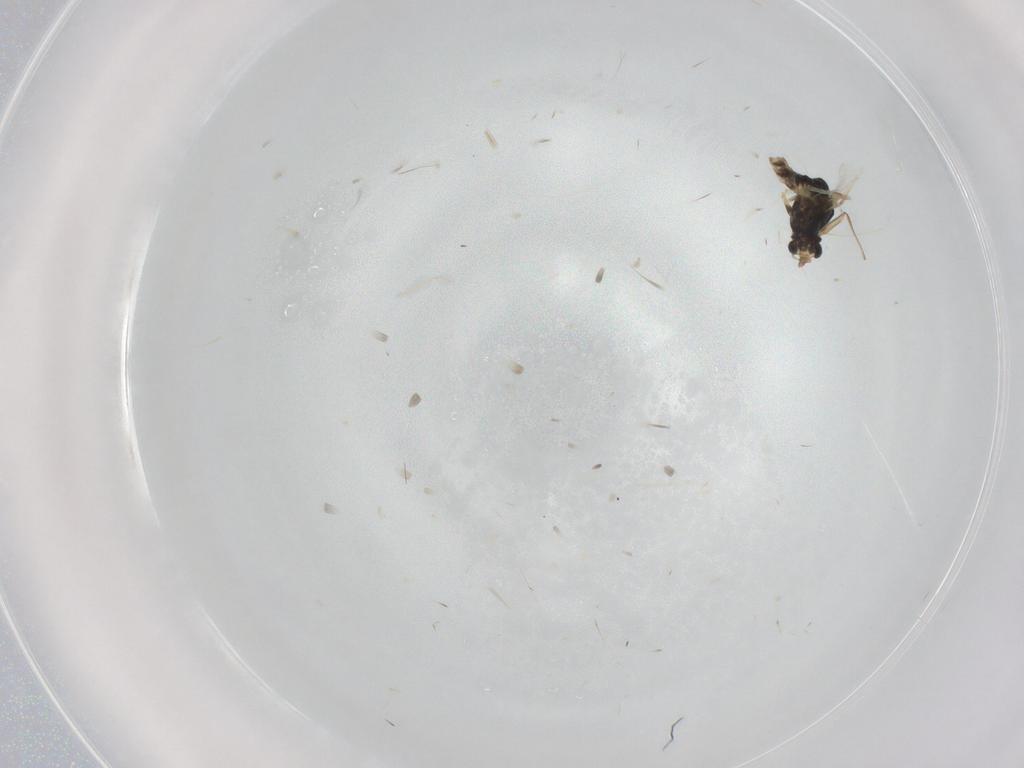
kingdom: Animalia
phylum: Arthropoda
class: Insecta
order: Diptera
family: Chironomidae
